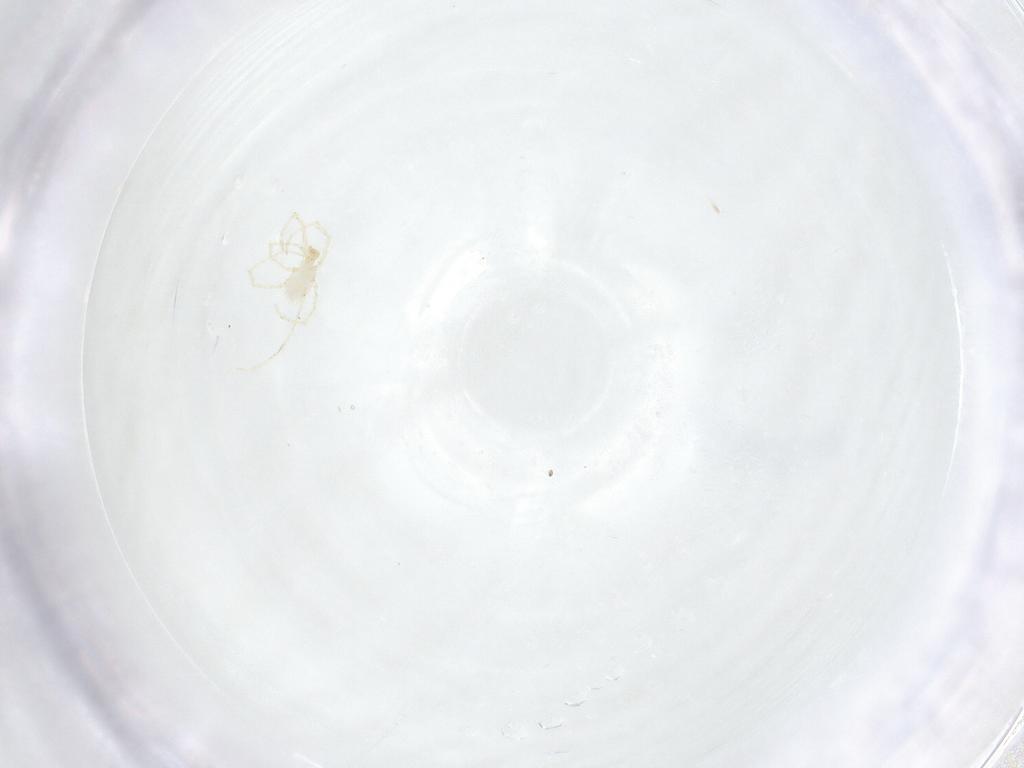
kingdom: Animalia
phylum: Arthropoda
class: Arachnida
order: Trombidiformes
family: Erythraeidae
